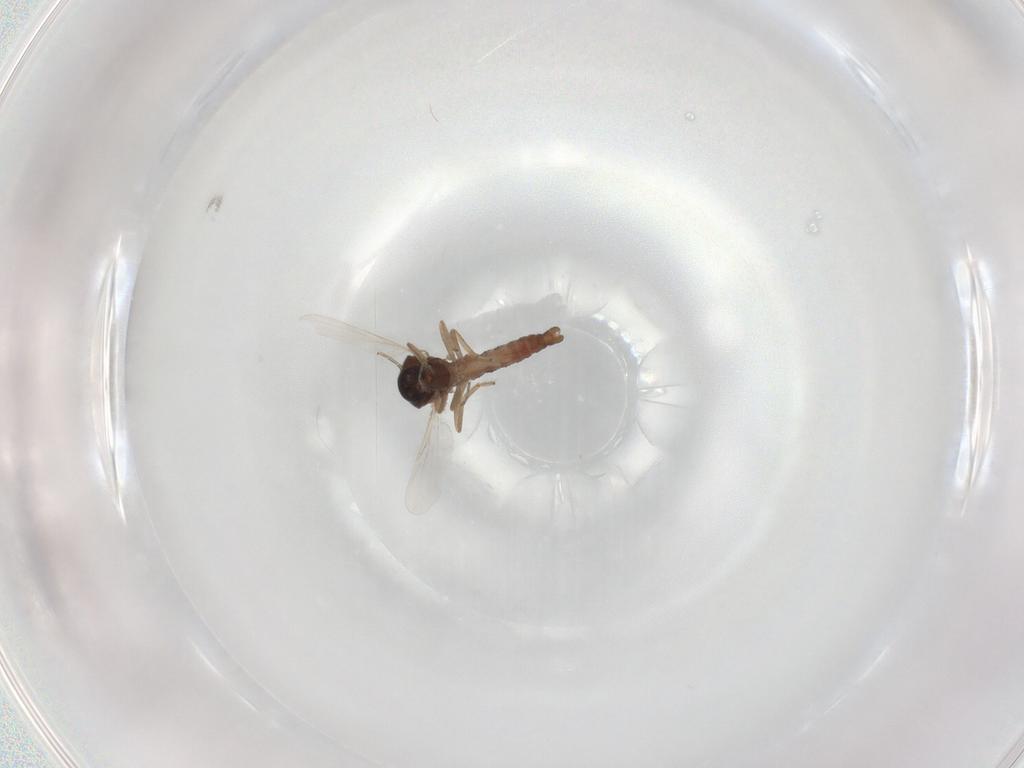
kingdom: Animalia
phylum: Arthropoda
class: Insecta
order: Diptera
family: Ceratopogonidae
